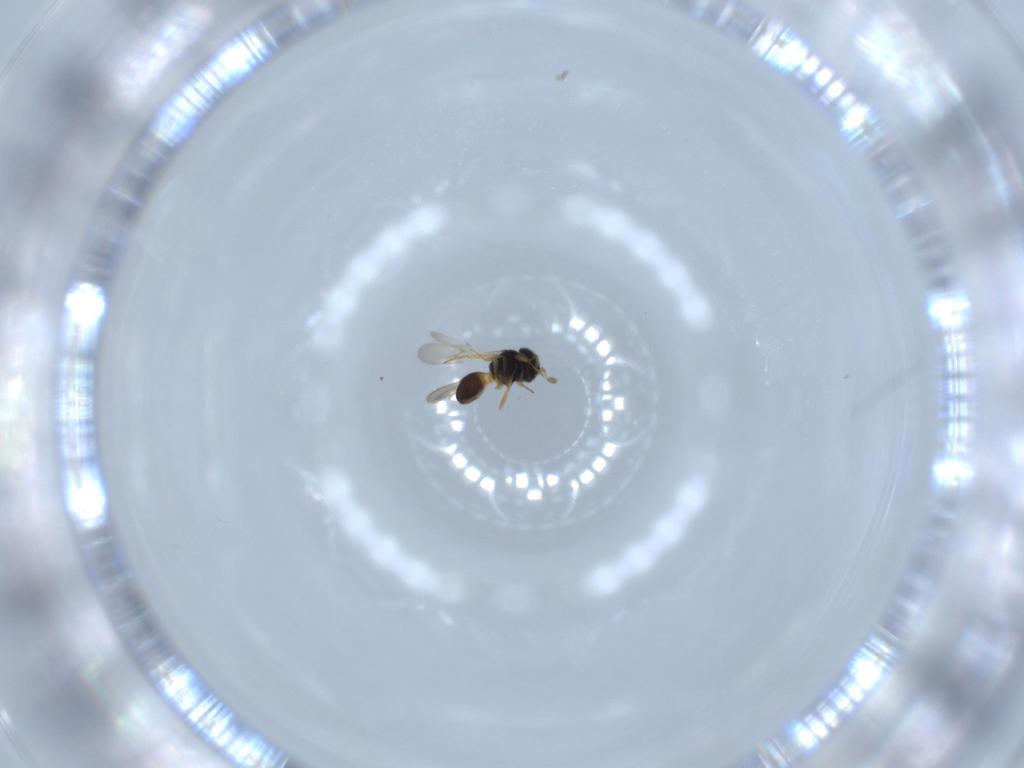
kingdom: Animalia
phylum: Arthropoda
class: Insecta
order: Hymenoptera
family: Scelionidae
